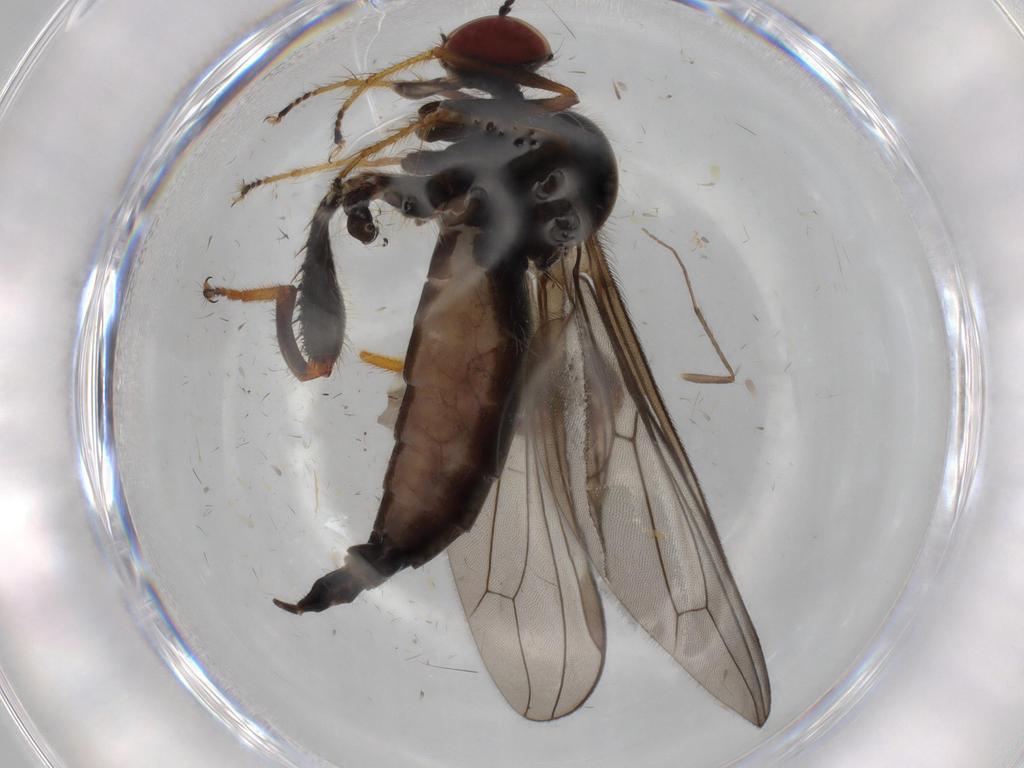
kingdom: Animalia
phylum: Arthropoda
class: Insecta
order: Diptera
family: Hybotidae
